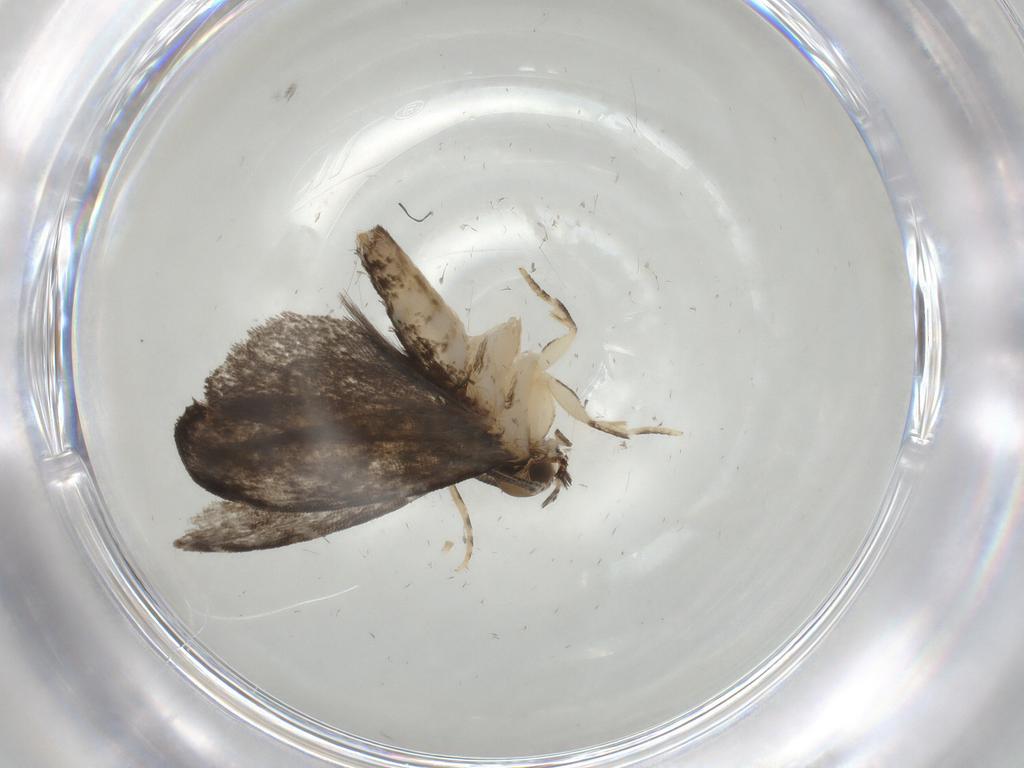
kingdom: Animalia
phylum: Arthropoda
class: Insecta
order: Lepidoptera
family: Dryadaulidae
